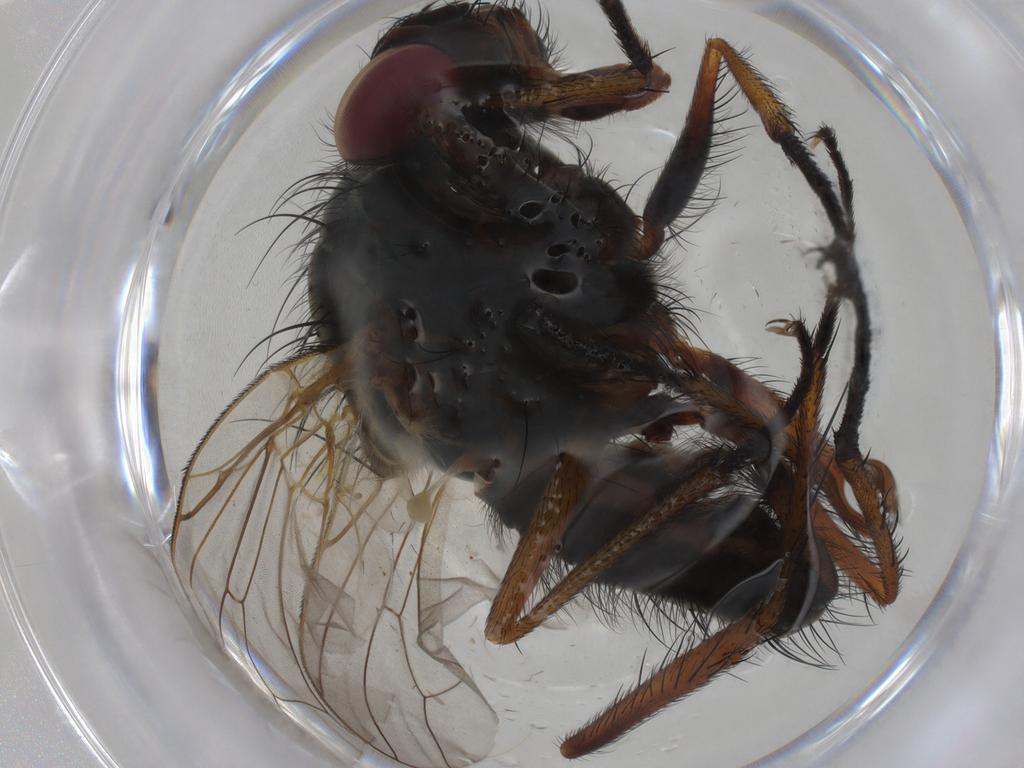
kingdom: Animalia
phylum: Arthropoda
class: Insecta
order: Diptera
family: Anthomyiidae
